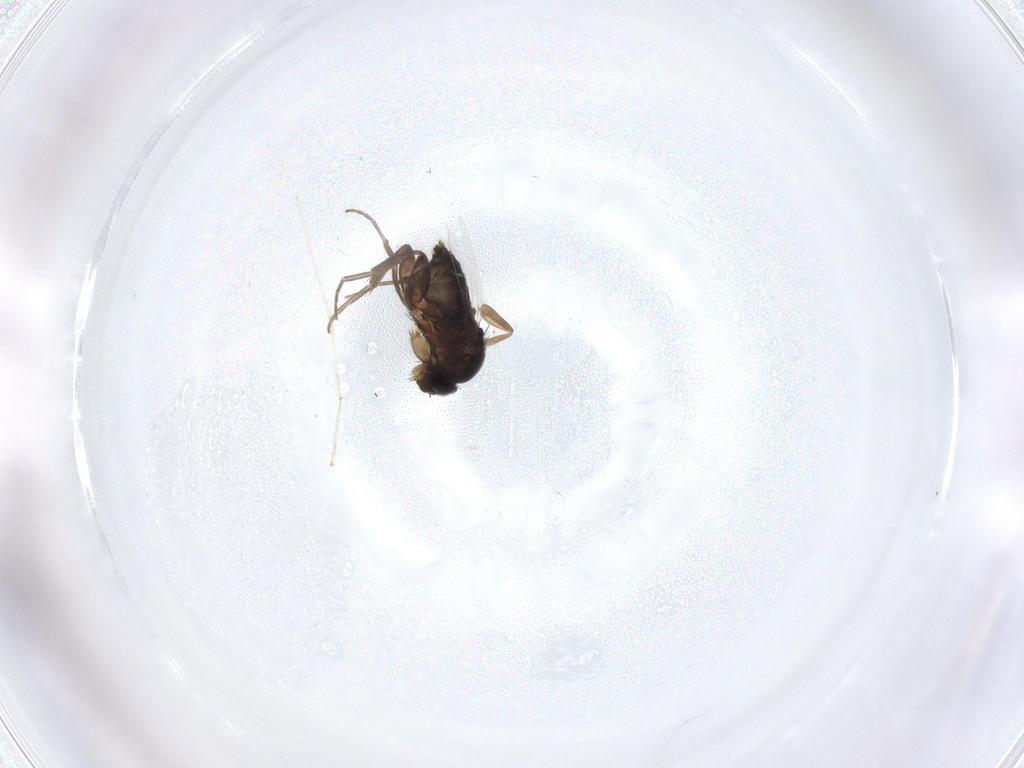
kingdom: Animalia
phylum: Arthropoda
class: Insecta
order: Diptera
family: Phoridae
